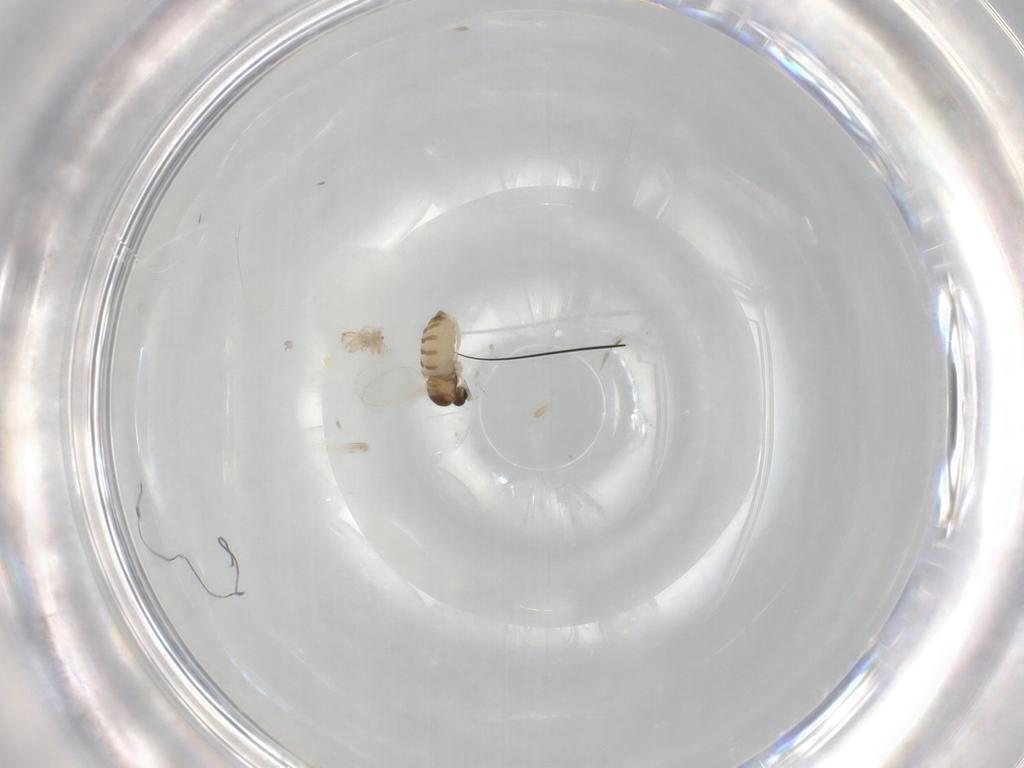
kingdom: Animalia
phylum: Arthropoda
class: Insecta
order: Diptera
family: Cecidomyiidae
